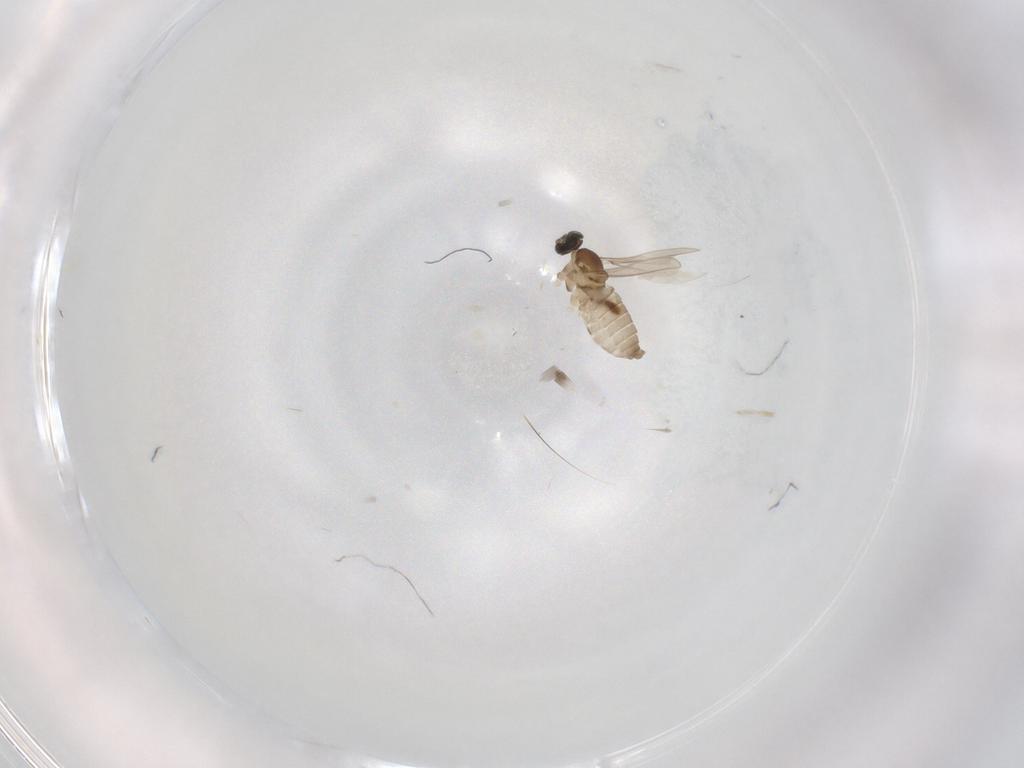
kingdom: Animalia
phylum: Arthropoda
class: Insecta
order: Diptera
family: Cecidomyiidae
